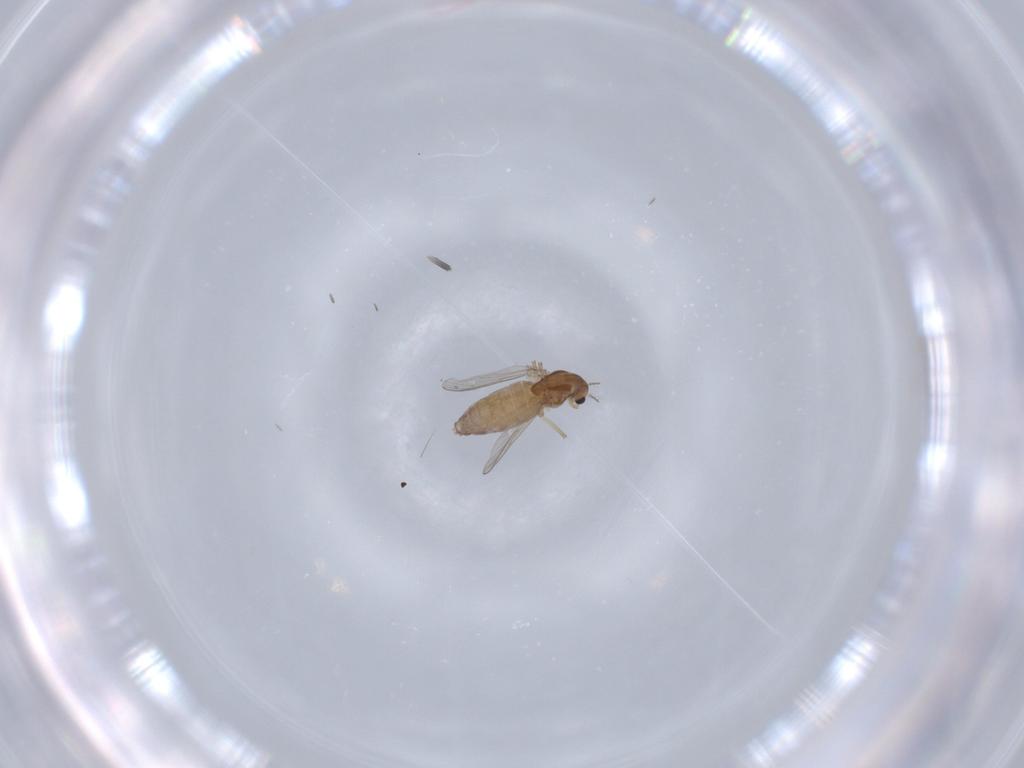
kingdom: Animalia
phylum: Arthropoda
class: Insecta
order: Diptera
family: Chironomidae
